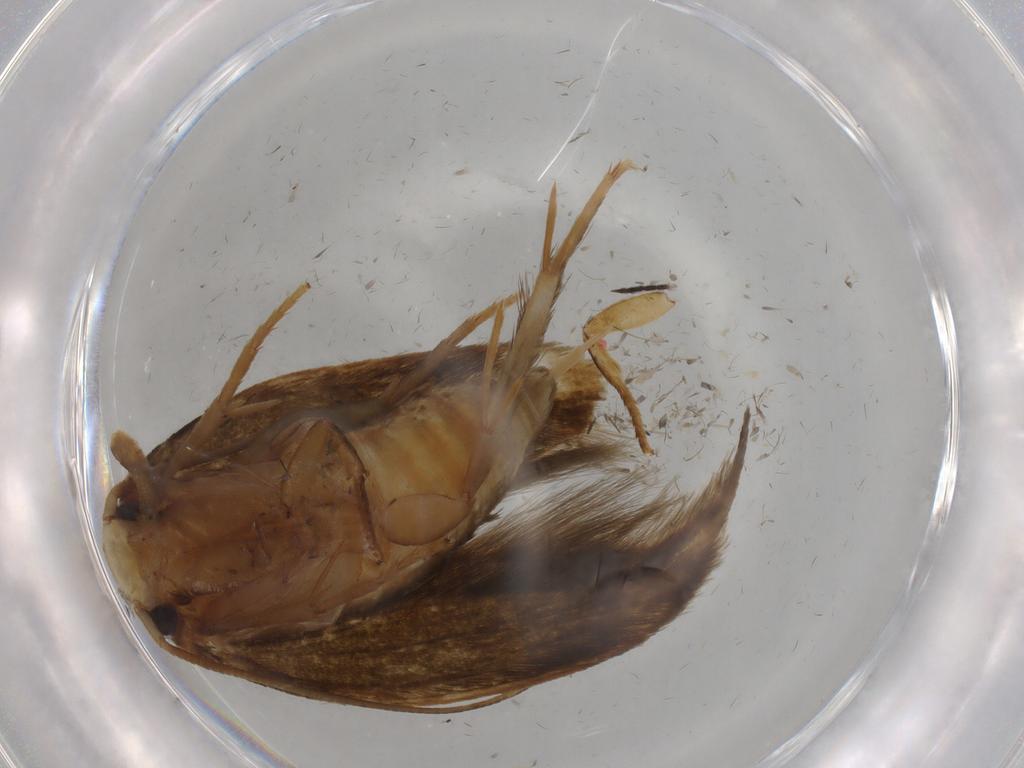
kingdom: Animalia
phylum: Arthropoda
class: Insecta
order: Lepidoptera
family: Tineidae
